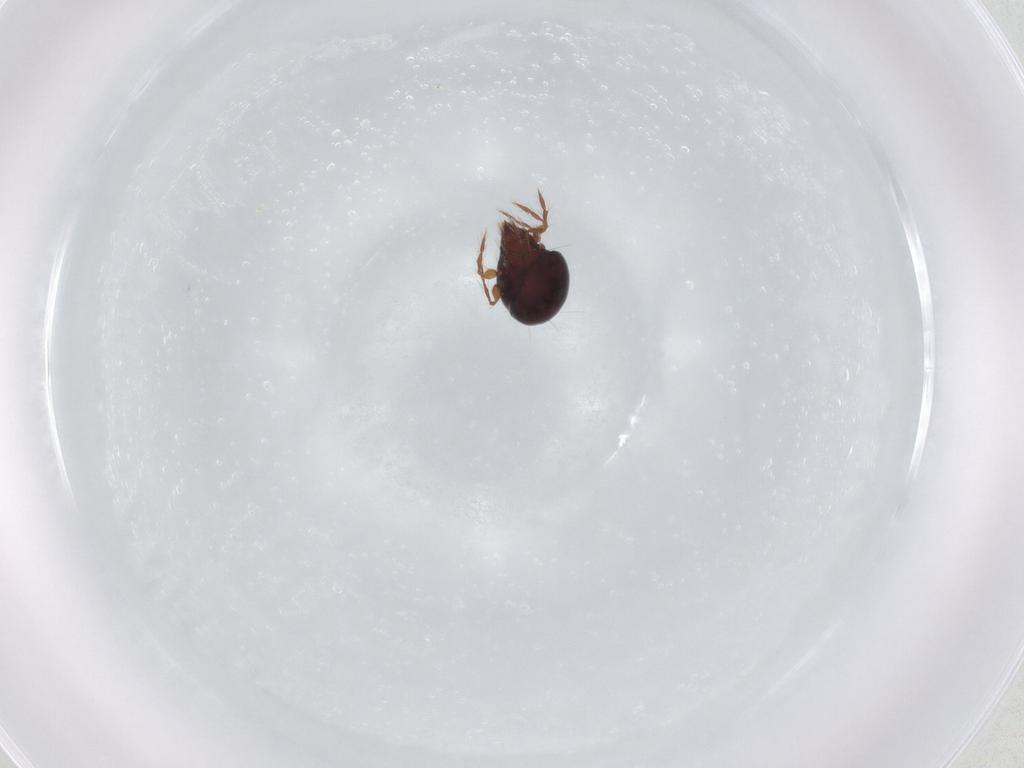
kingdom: Animalia
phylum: Arthropoda
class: Arachnida
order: Sarcoptiformes
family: Ceratoppiidae
